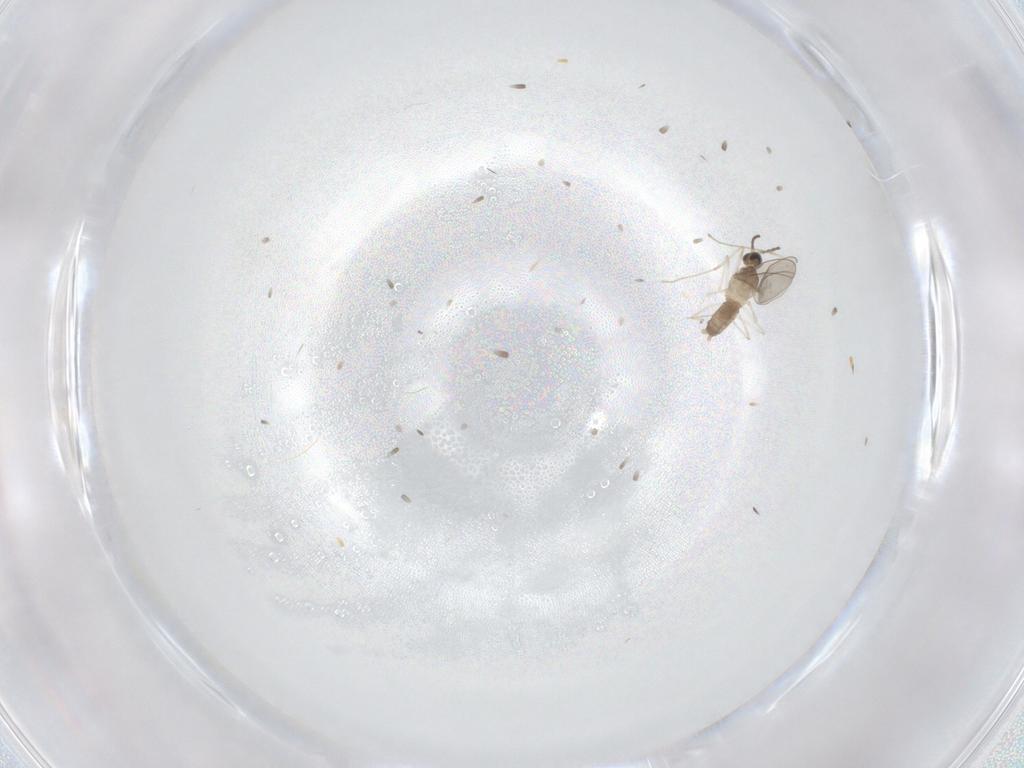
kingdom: Animalia
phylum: Arthropoda
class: Insecta
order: Diptera
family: Cecidomyiidae
